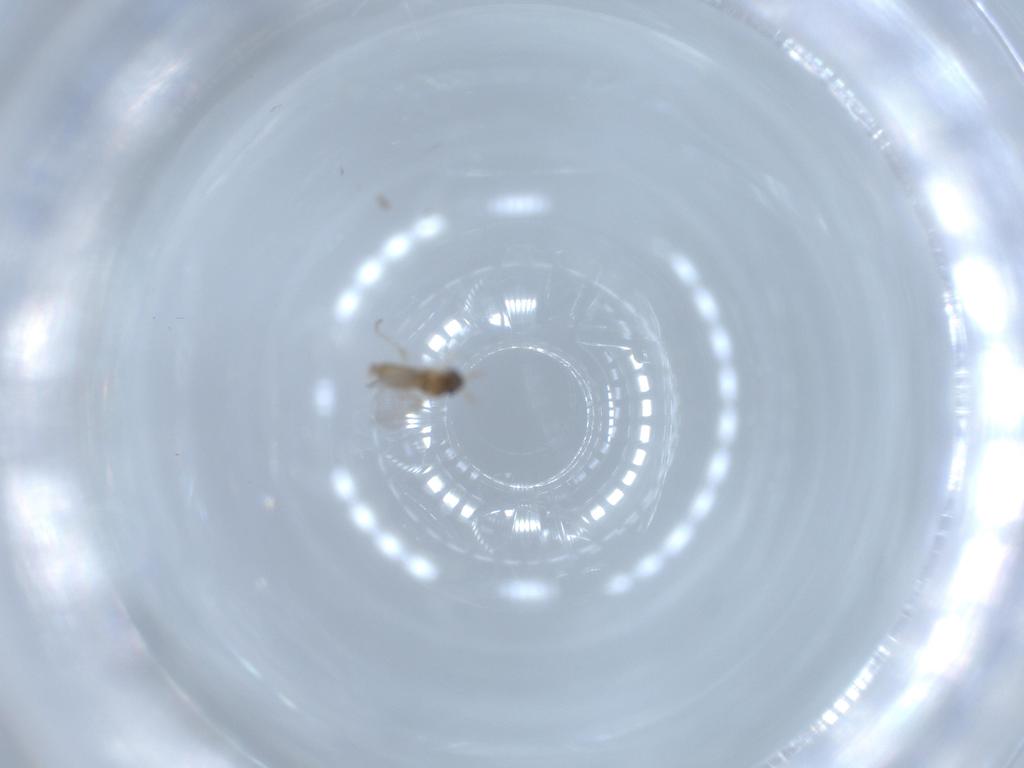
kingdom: Animalia
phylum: Arthropoda
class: Insecta
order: Diptera
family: Cecidomyiidae
